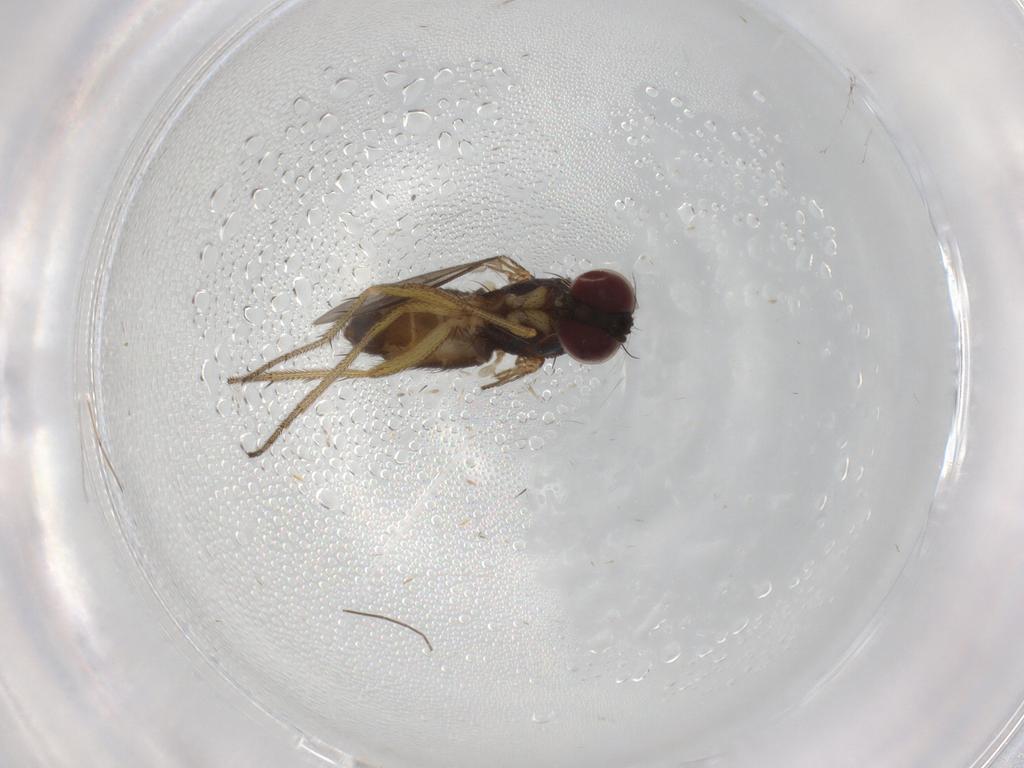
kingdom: Animalia
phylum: Arthropoda
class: Insecta
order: Diptera
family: Dolichopodidae
